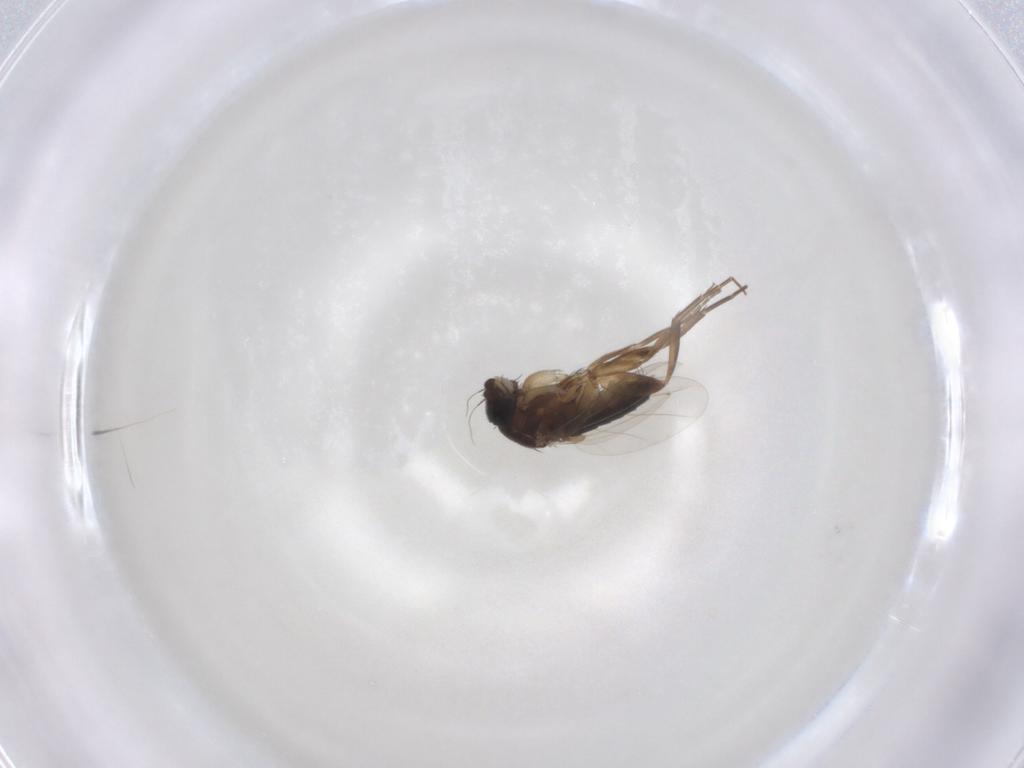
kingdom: Animalia
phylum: Arthropoda
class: Insecta
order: Diptera
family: Phoridae
